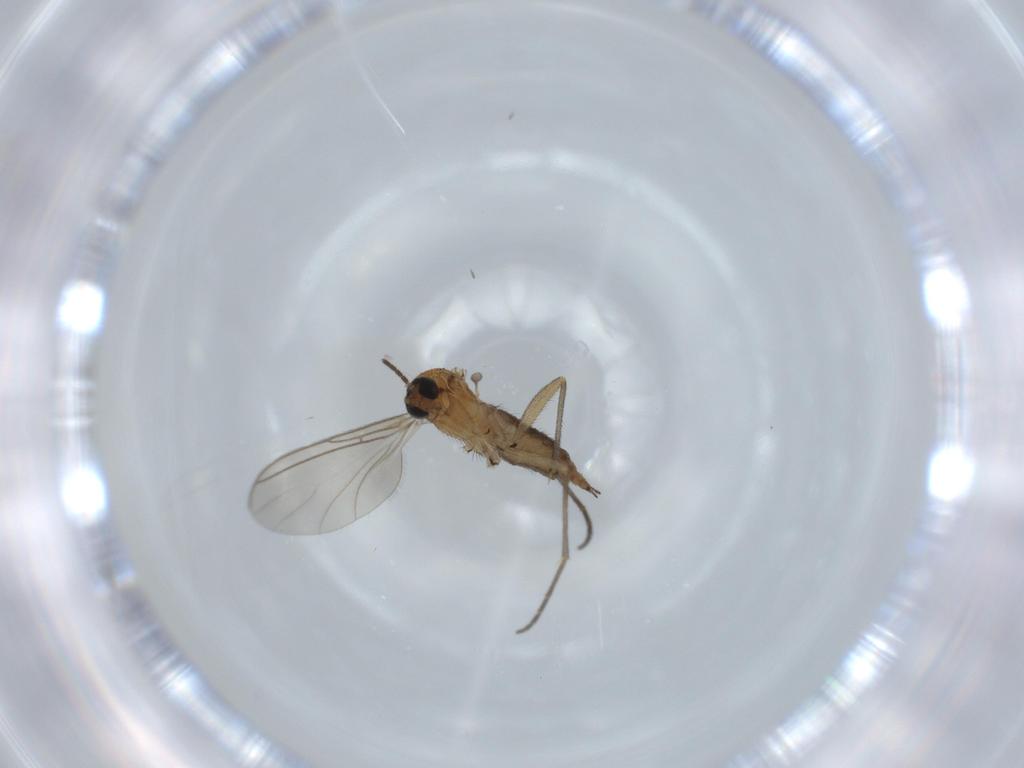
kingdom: Animalia
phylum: Arthropoda
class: Insecta
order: Diptera
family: Sciaridae
